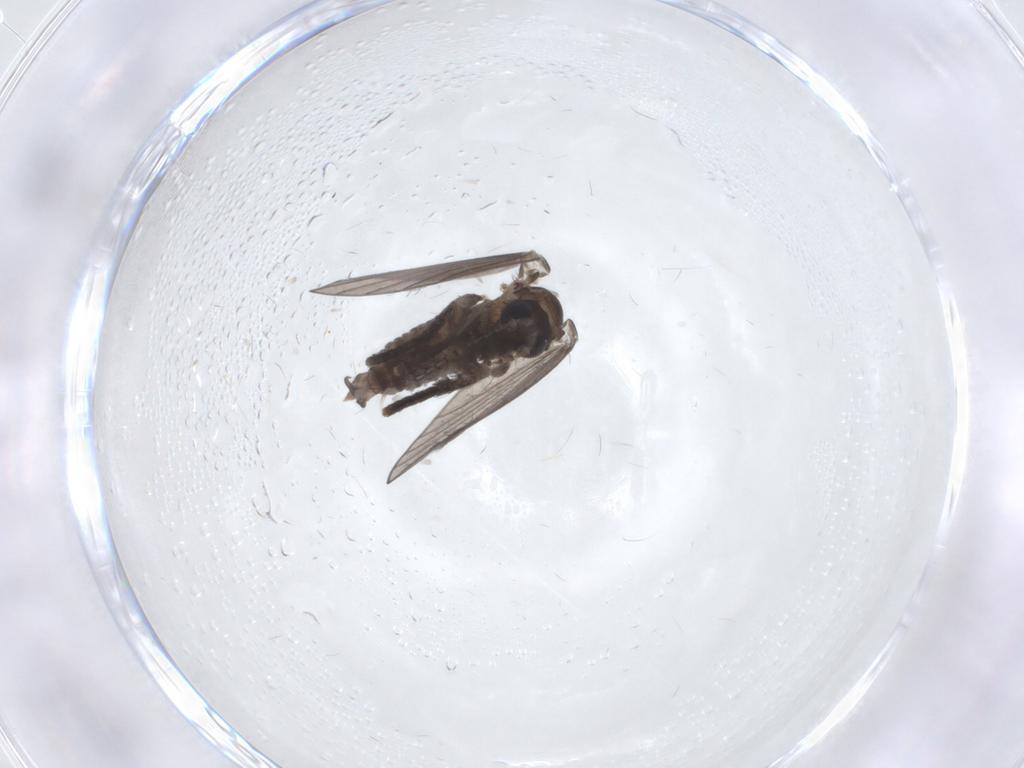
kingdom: Animalia
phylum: Arthropoda
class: Insecta
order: Diptera
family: Psychodidae
